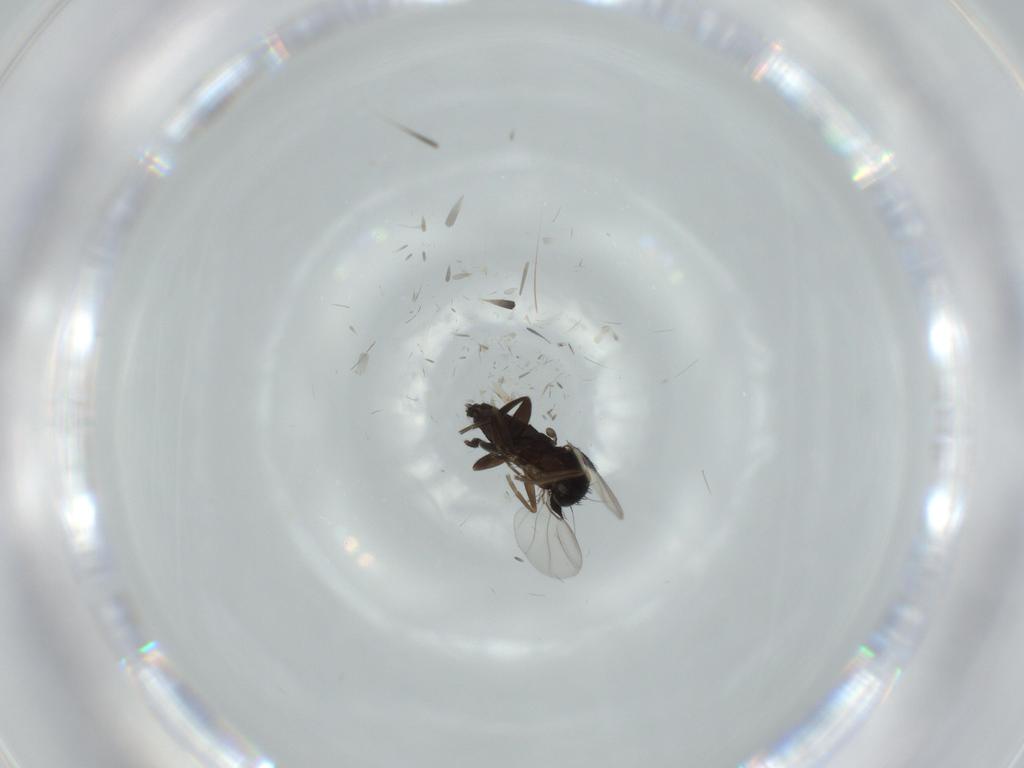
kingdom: Animalia
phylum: Arthropoda
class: Insecta
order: Diptera
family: Phoridae
